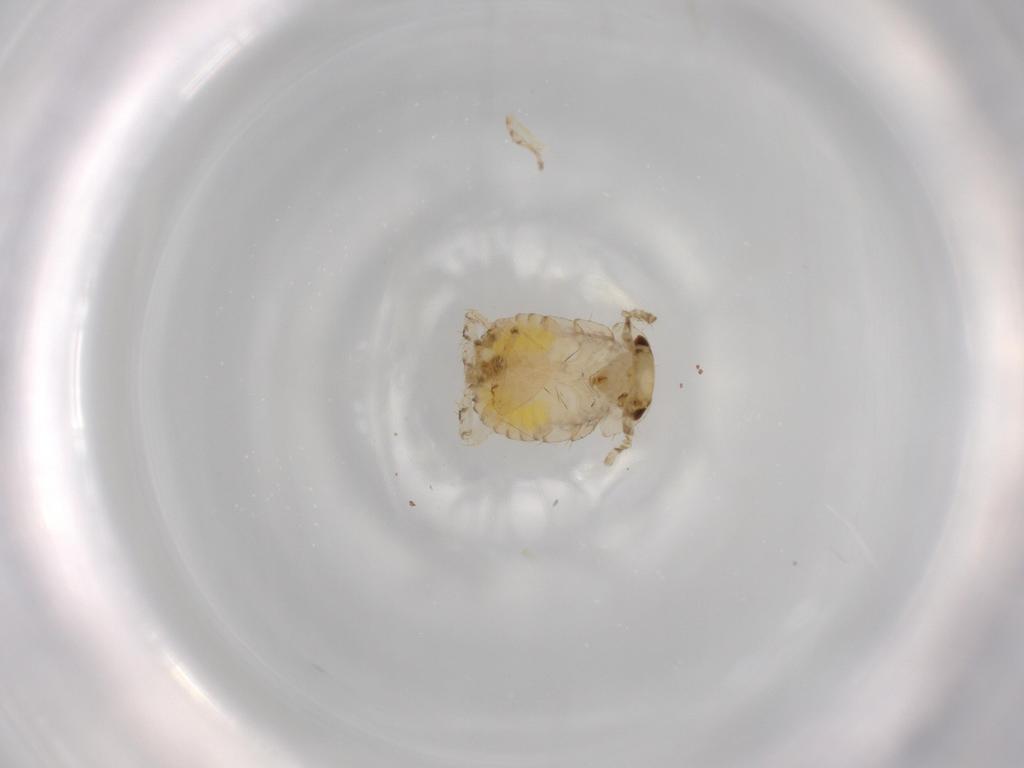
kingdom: Animalia
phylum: Arthropoda
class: Insecta
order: Blattodea
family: Ectobiidae
